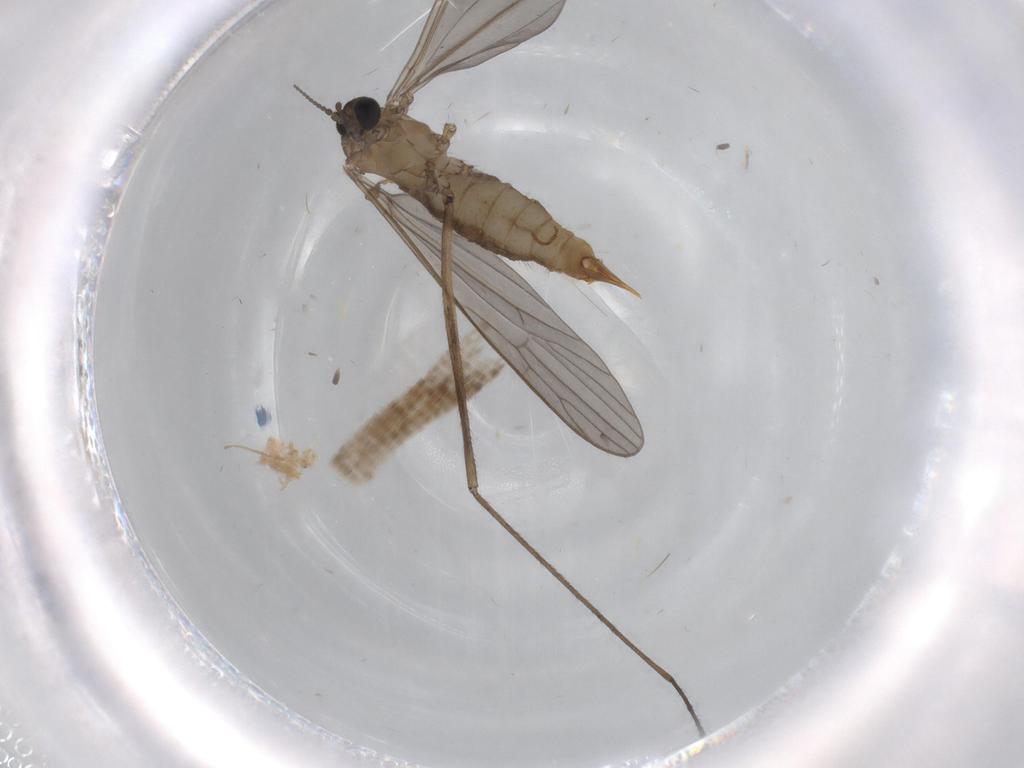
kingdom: Animalia
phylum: Arthropoda
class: Insecta
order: Diptera
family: Limoniidae
